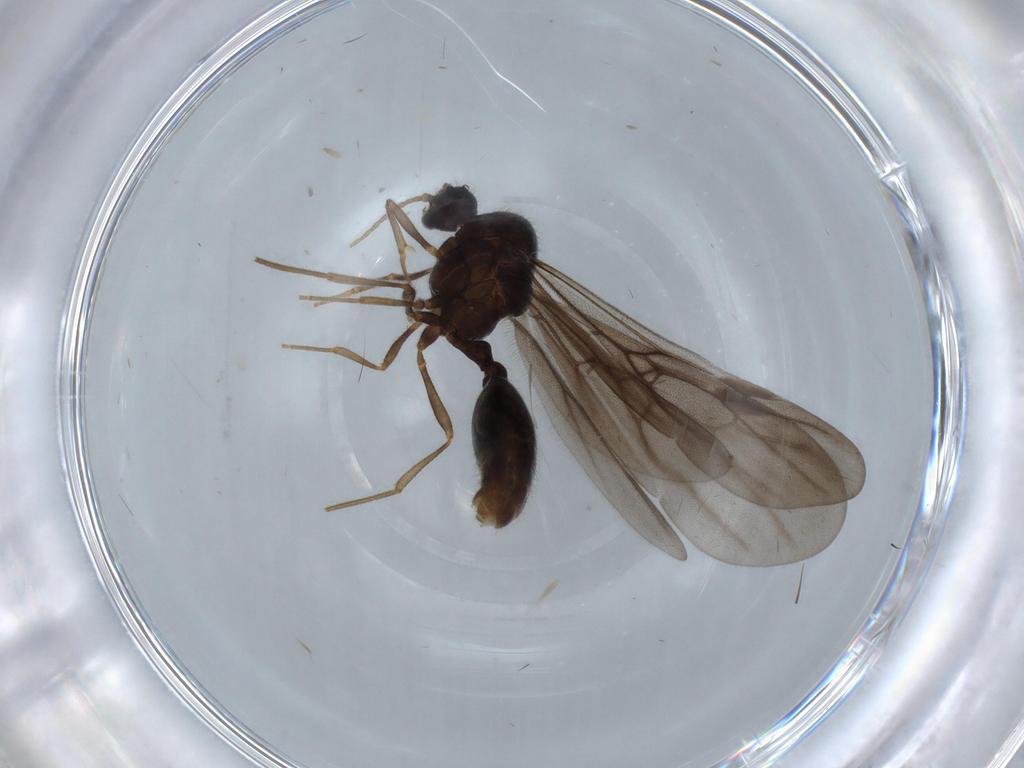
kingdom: Animalia
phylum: Arthropoda
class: Insecta
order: Hymenoptera
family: Formicidae
